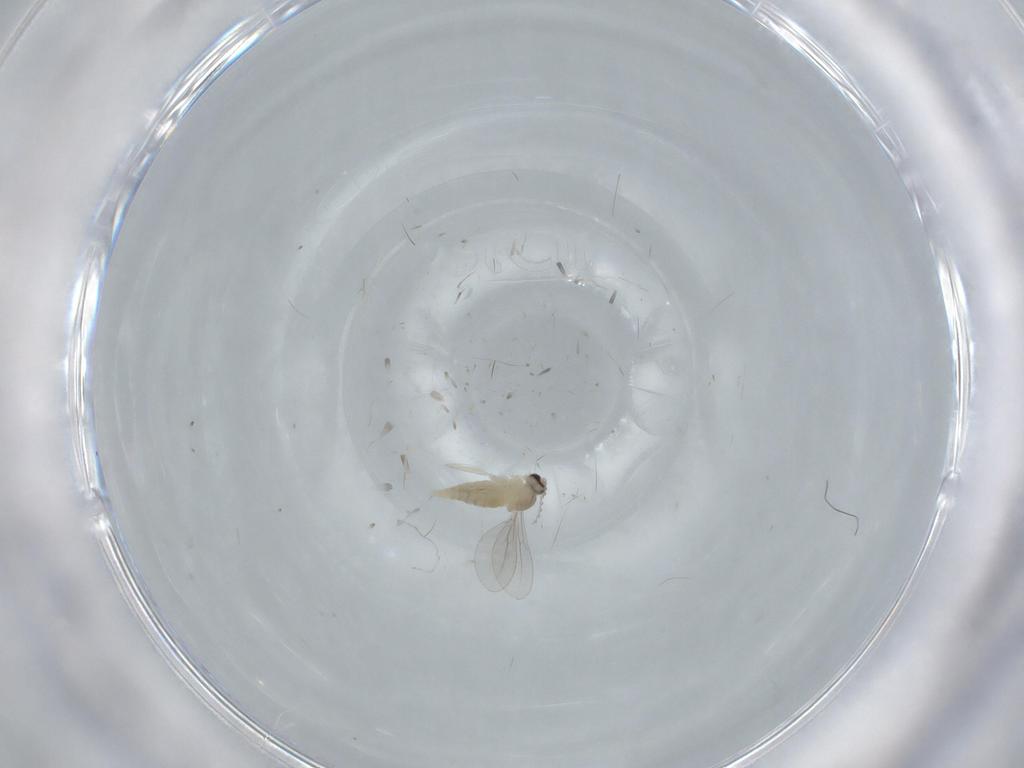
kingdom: Animalia
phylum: Arthropoda
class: Insecta
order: Diptera
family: Cecidomyiidae
